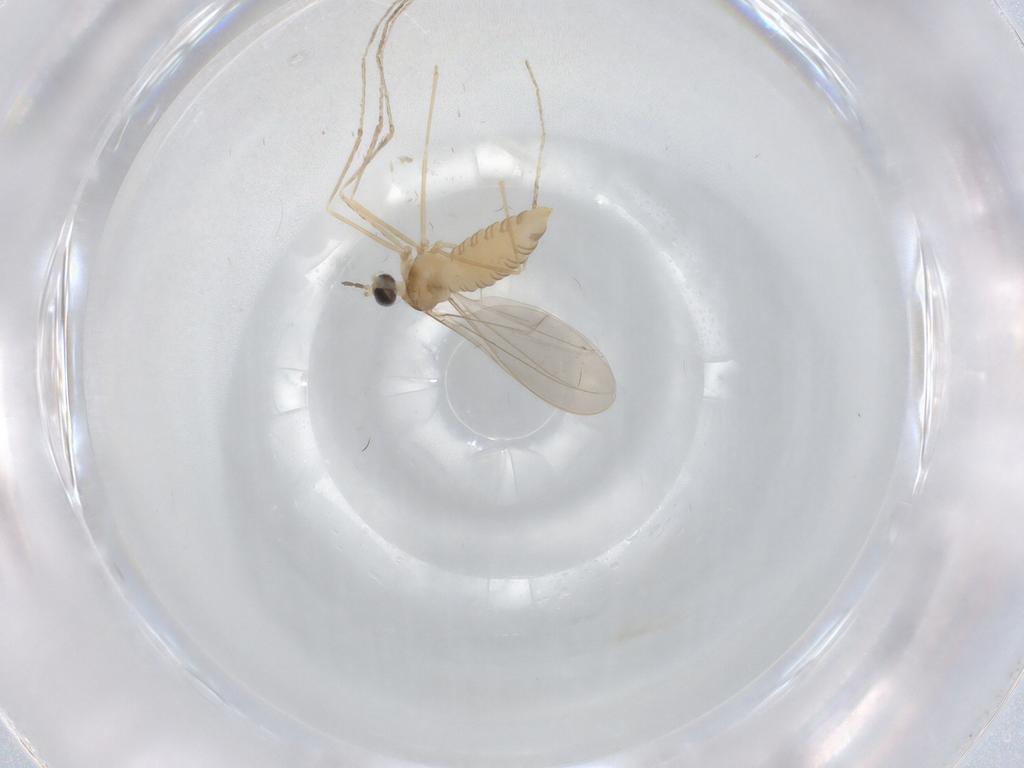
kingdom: Animalia
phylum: Arthropoda
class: Insecta
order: Diptera
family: Cecidomyiidae
